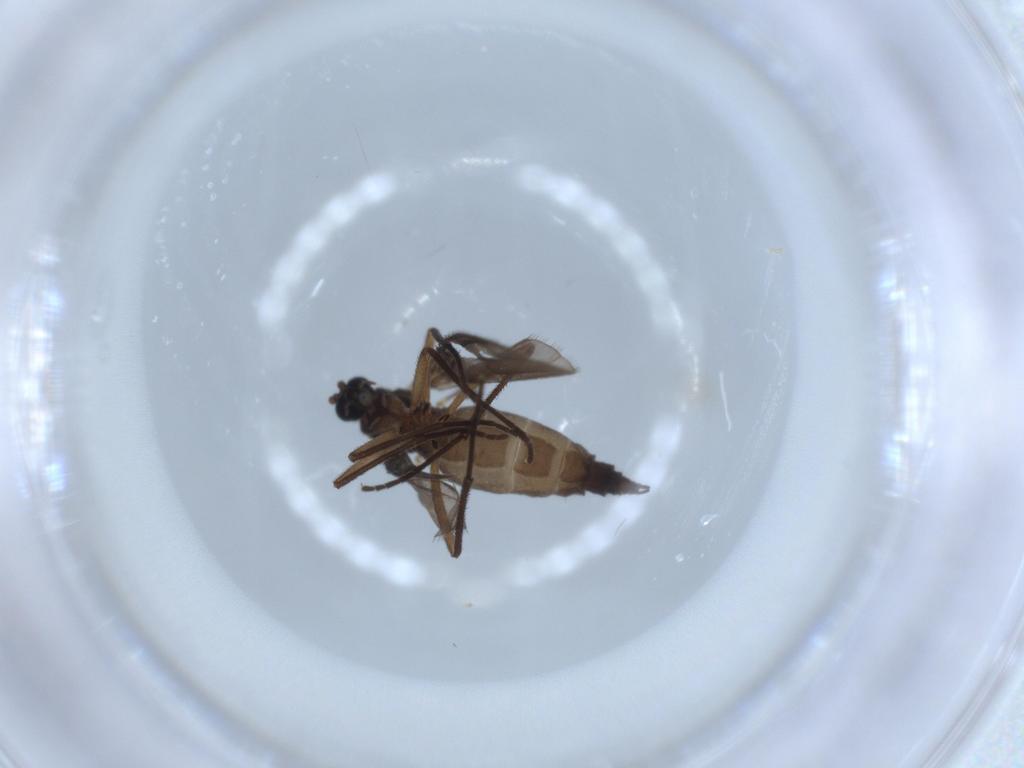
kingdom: Animalia
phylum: Arthropoda
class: Insecta
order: Diptera
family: Sciaridae
